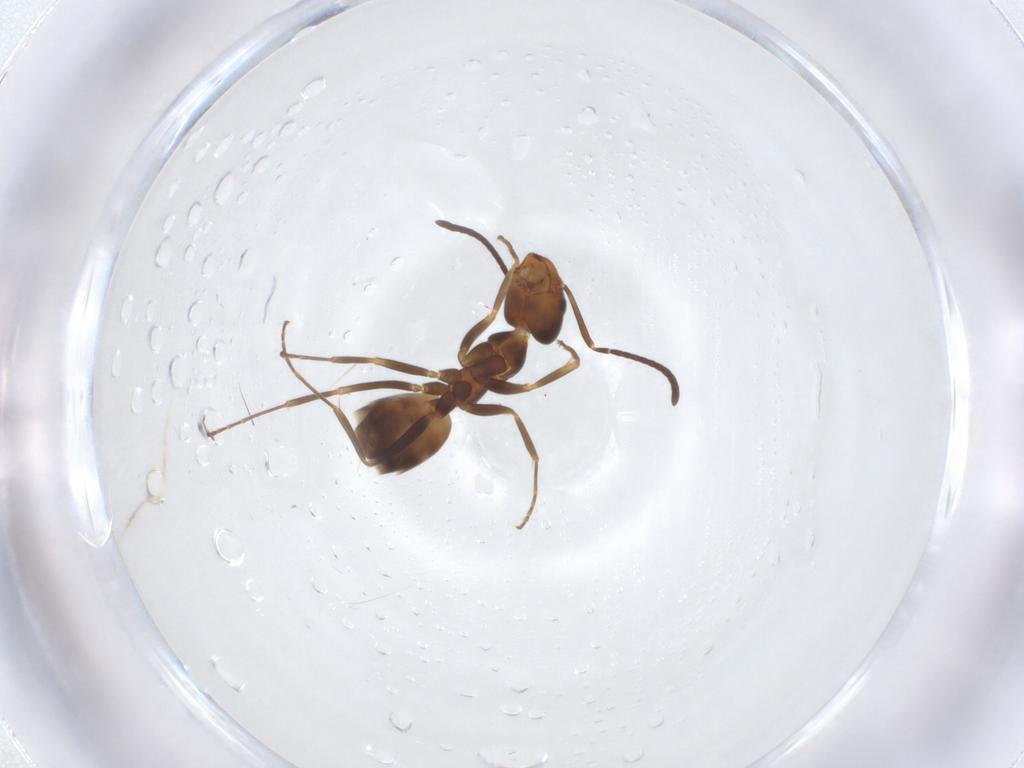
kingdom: Animalia
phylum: Arthropoda
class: Insecta
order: Hymenoptera
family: Formicidae
